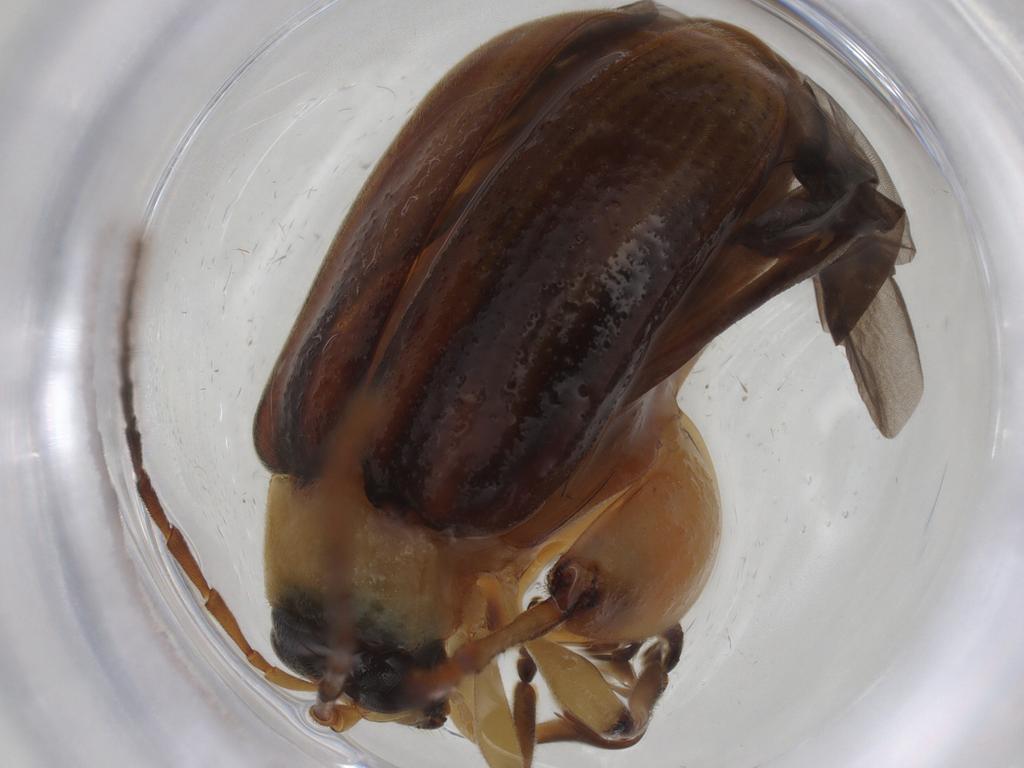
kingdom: Animalia
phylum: Arthropoda
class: Insecta
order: Coleoptera
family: Chrysomelidae
